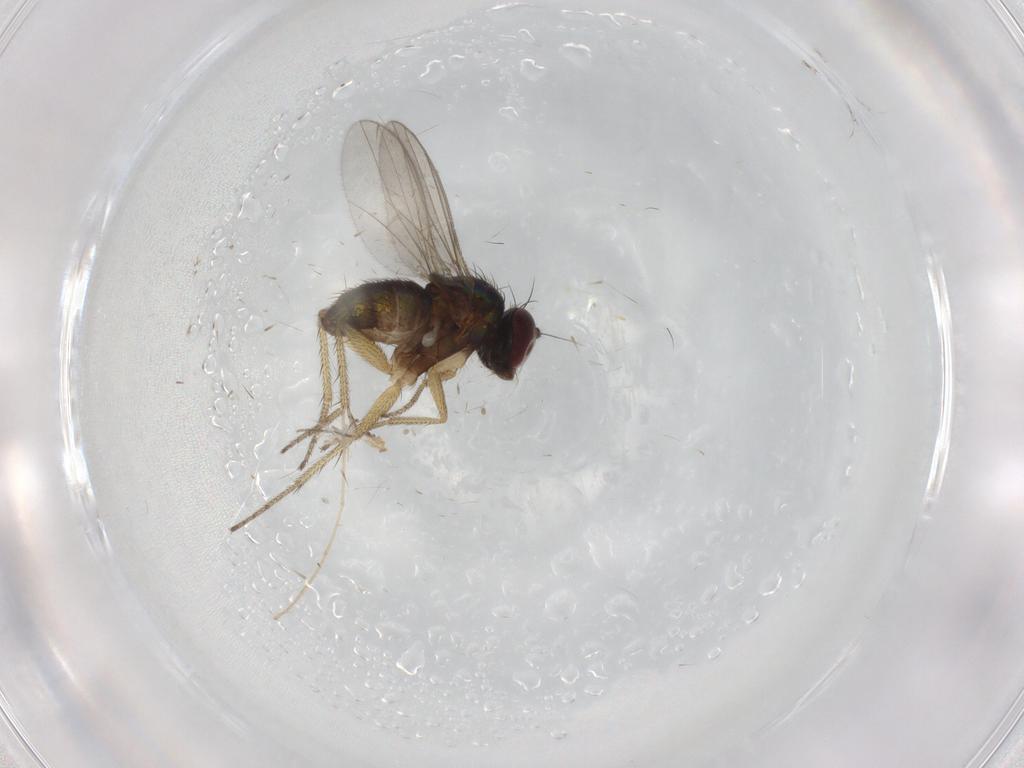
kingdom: Animalia
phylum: Arthropoda
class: Insecta
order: Diptera
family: Chironomidae
